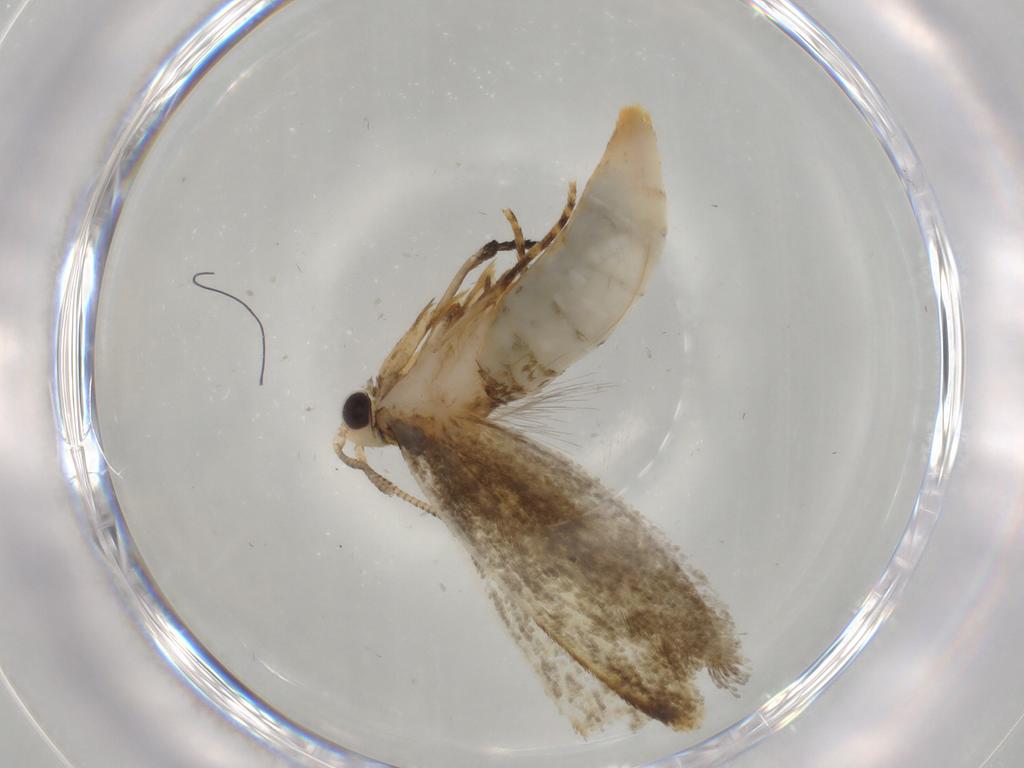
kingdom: Animalia
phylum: Arthropoda
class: Insecta
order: Lepidoptera
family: Tineidae
